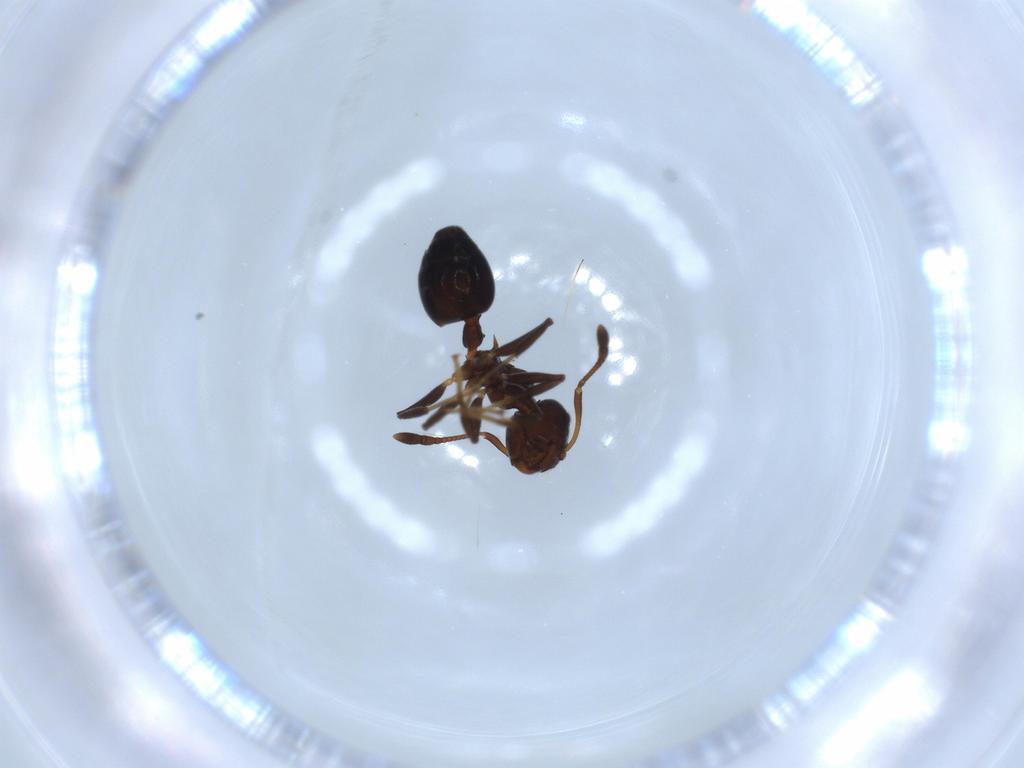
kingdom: Animalia
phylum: Arthropoda
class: Insecta
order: Hymenoptera
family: Formicidae
